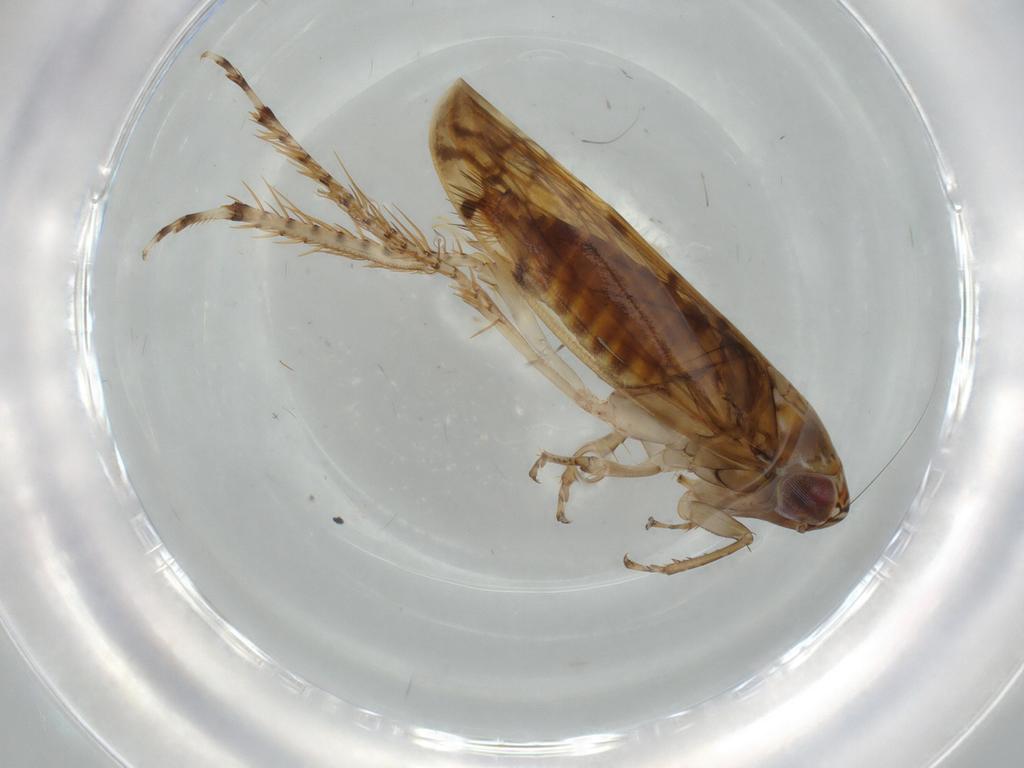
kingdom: Animalia
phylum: Arthropoda
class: Insecta
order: Hemiptera
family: Cicadellidae
